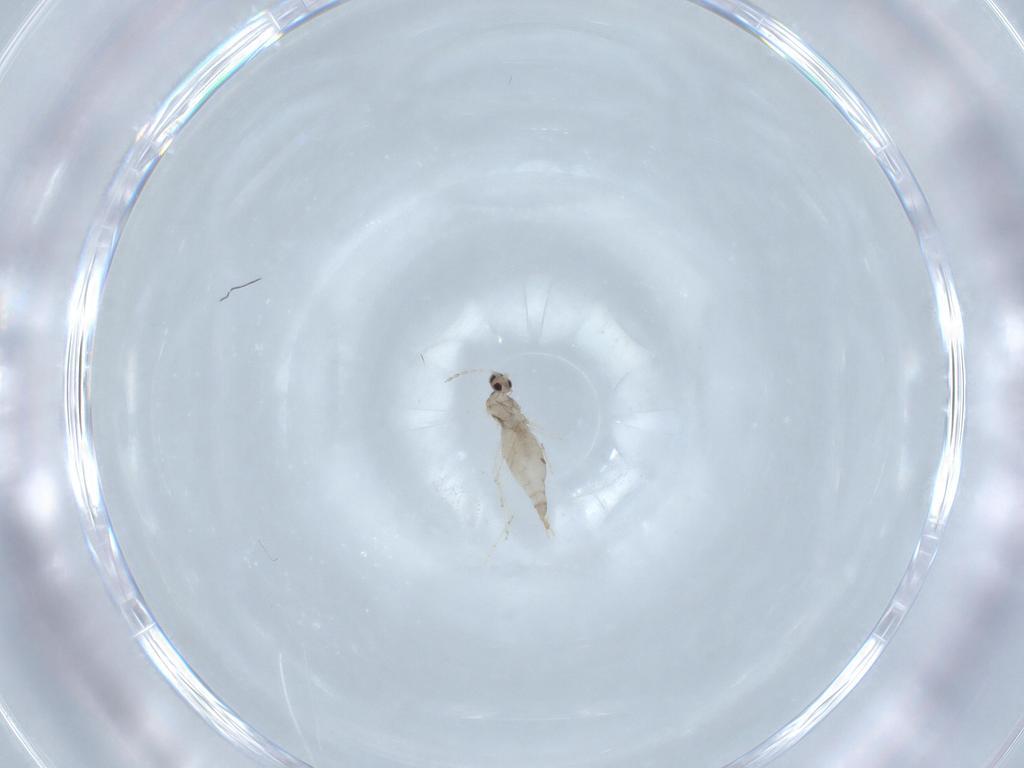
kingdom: Animalia
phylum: Arthropoda
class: Insecta
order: Diptera
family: Cecidomyiidae
